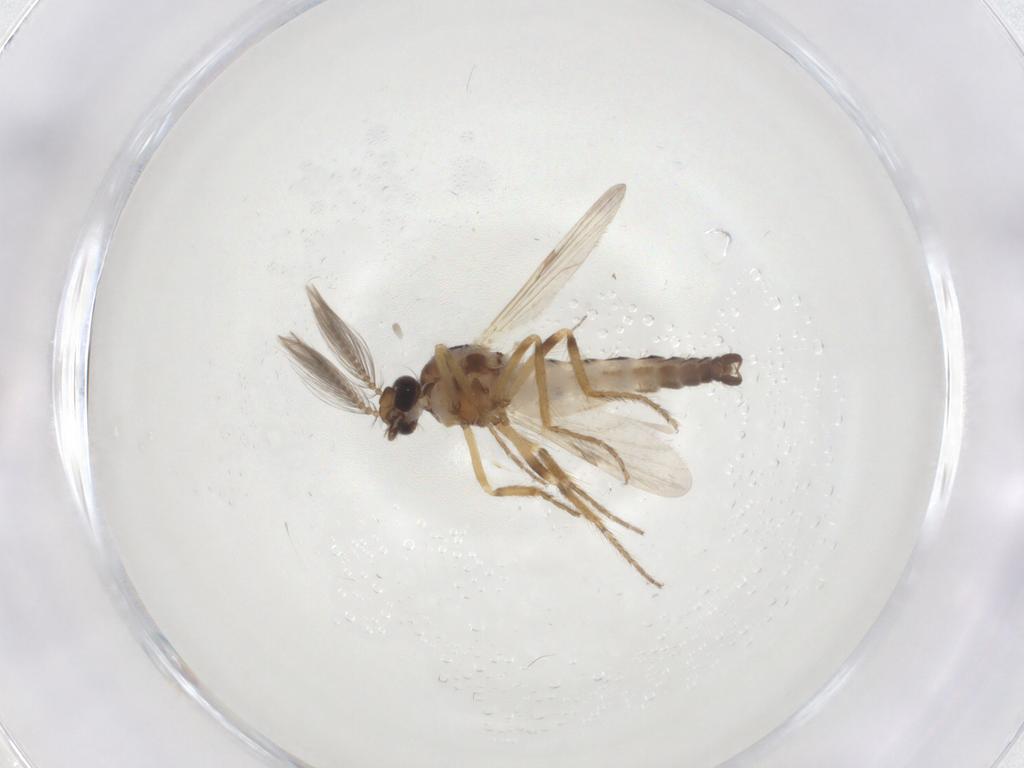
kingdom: Animalia
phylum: Arthropoda
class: Insecta
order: Diptera
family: Ceratopogonidae
